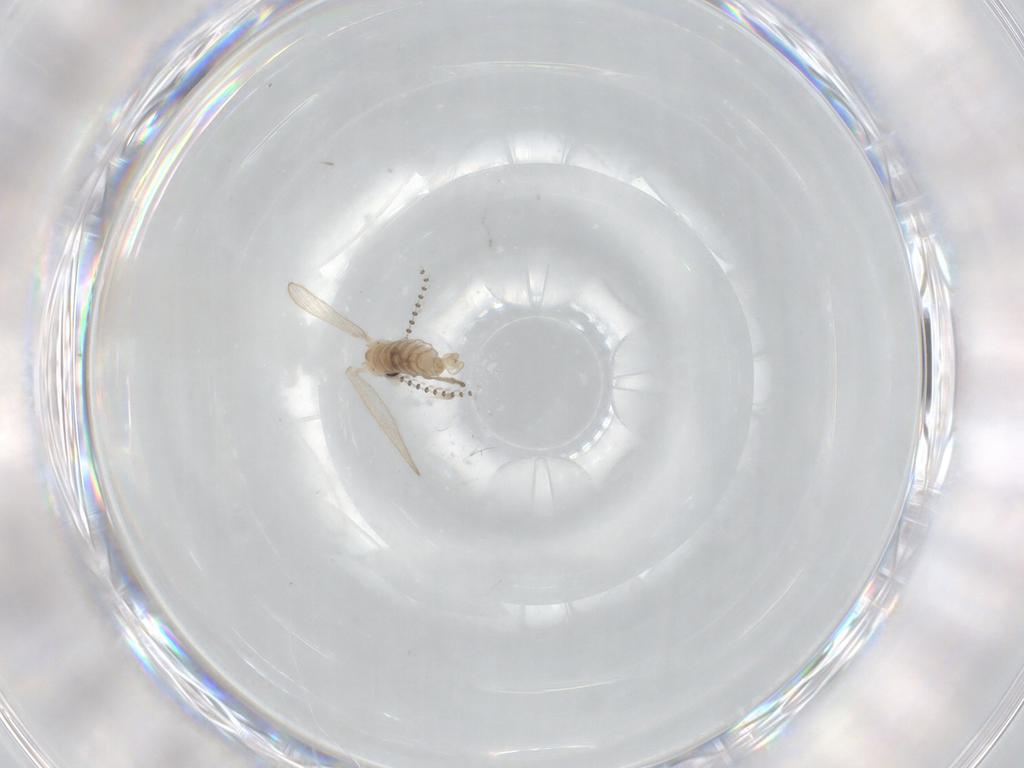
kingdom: Animalia
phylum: Arthropoda
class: Insecta
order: Diptera
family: Psychodidae
